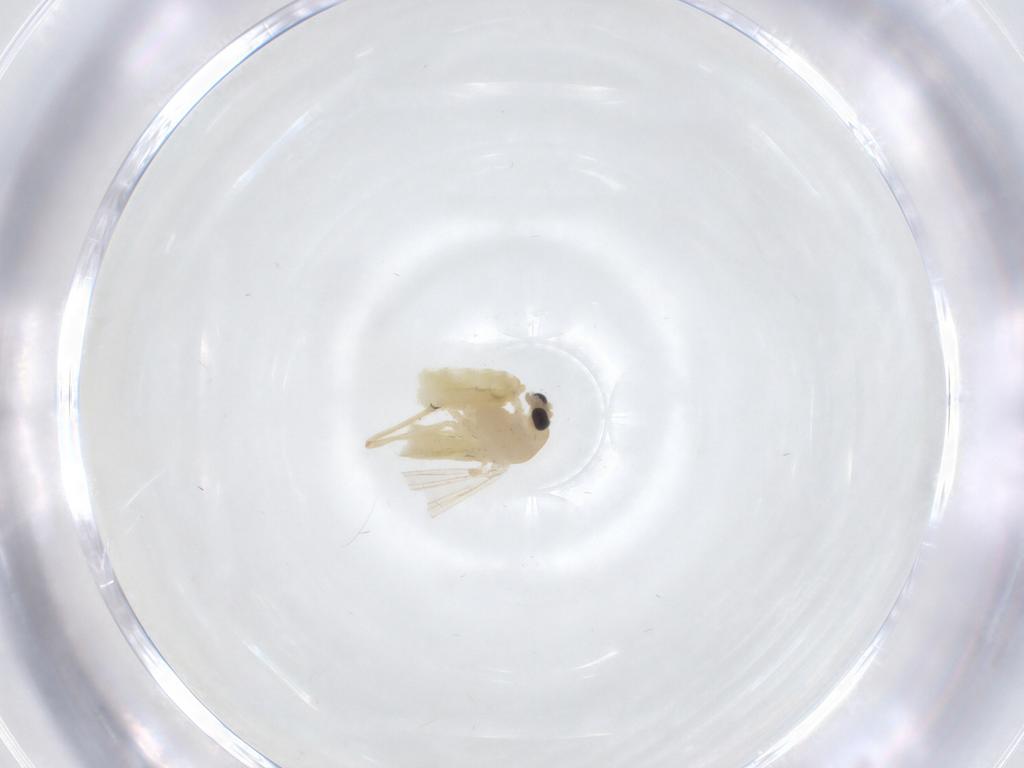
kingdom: Animalia
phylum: Arthropoda
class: Insecta
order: Diptera
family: Chironomidae
